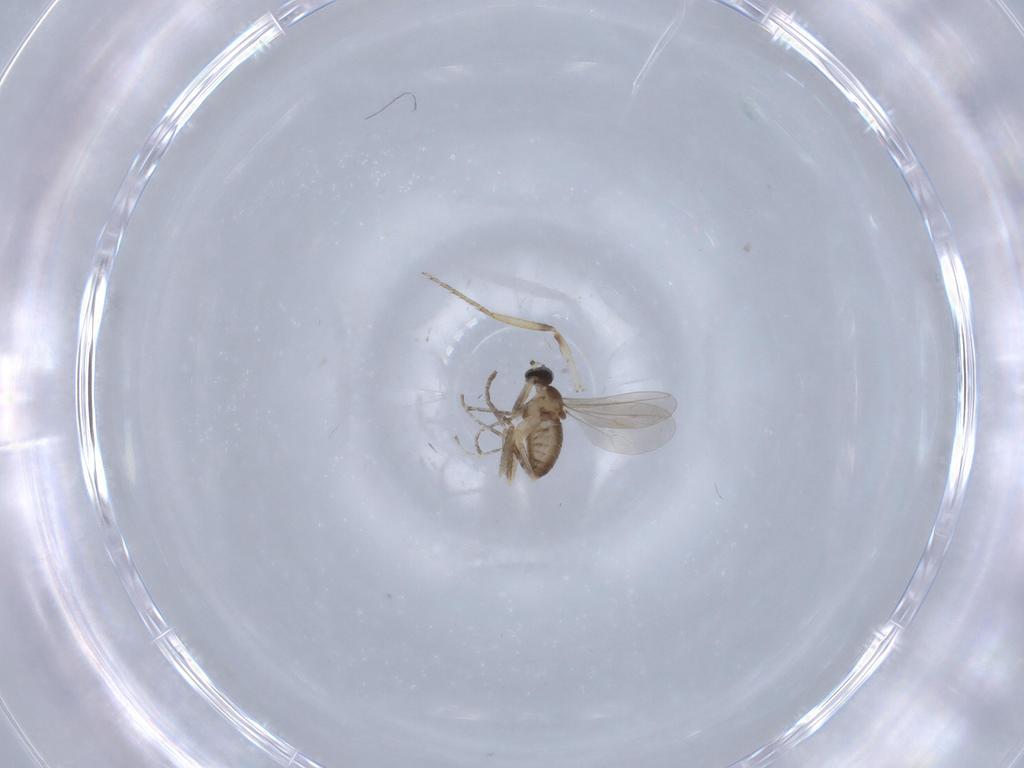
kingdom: Animalia
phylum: Arthropoda
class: Insecta
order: Diptera
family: Ceratopogonidae
